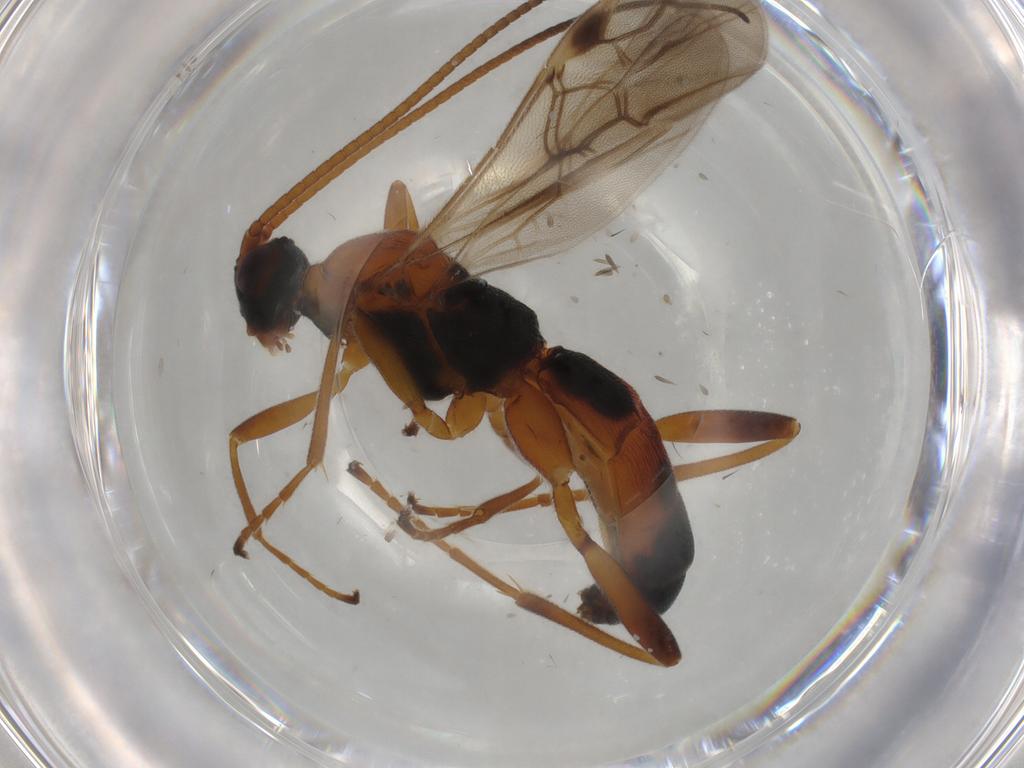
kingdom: Animalia
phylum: Arthropoda
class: Insecta
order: Hymenoptera
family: Braconidae
